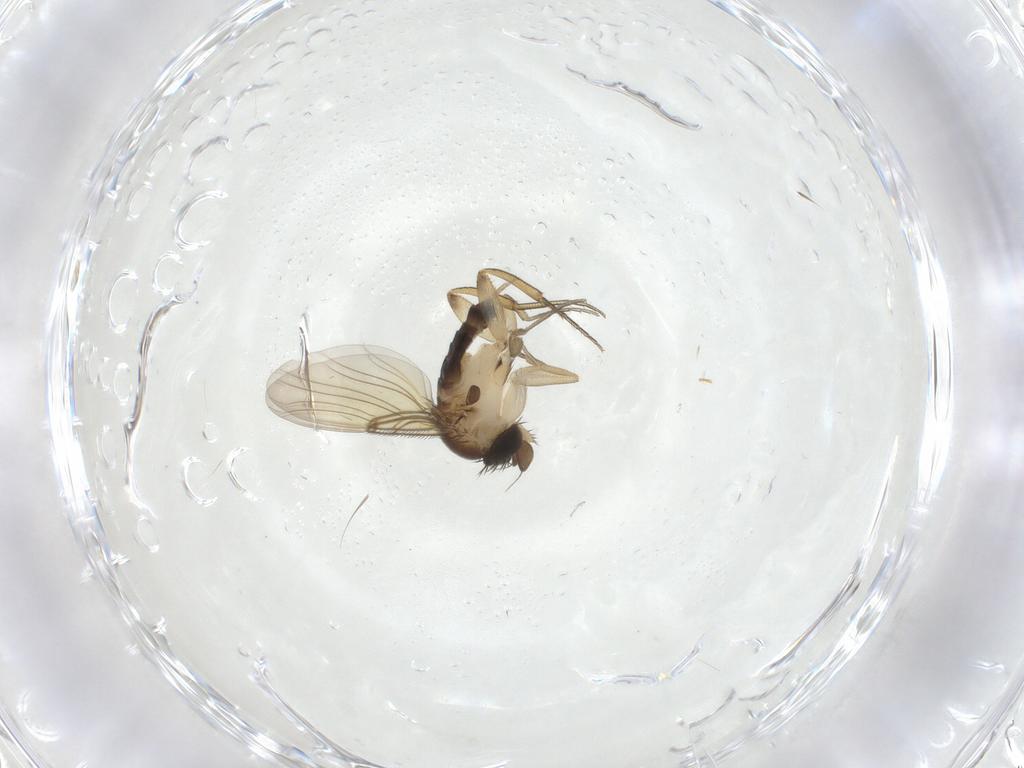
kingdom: Animalia
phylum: Arthropoda
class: Insecta
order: Diptera
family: Phoridae
